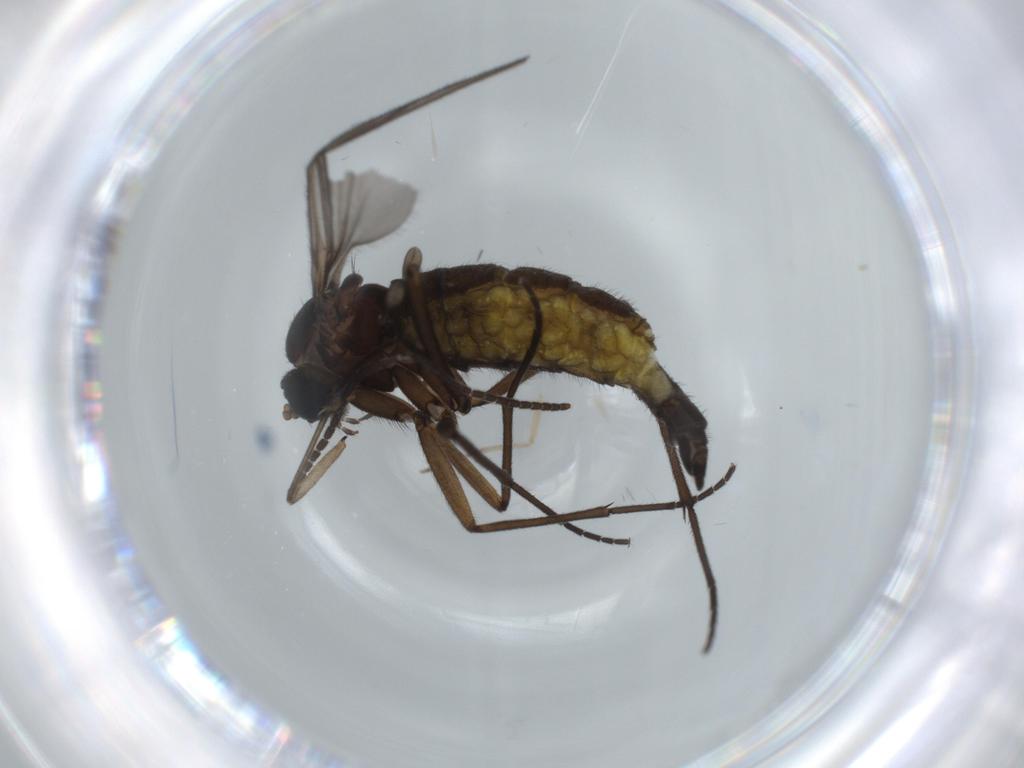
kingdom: Animalia
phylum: Arthropoda
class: Insecta
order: Diptera
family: Sciaridae
